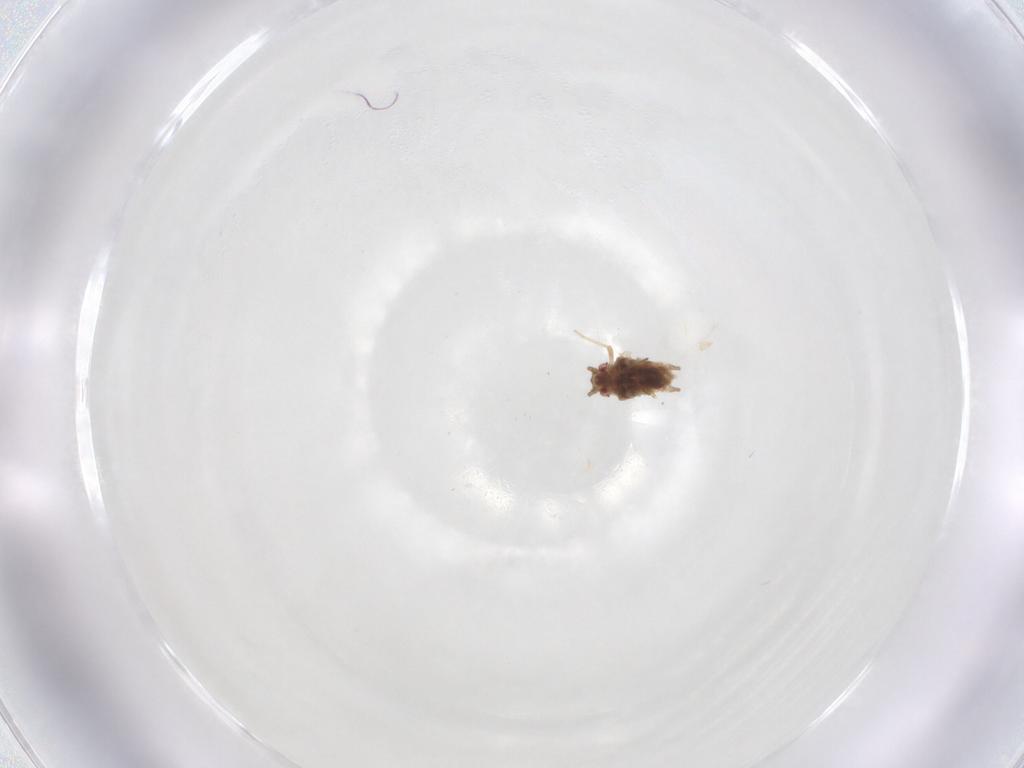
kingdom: Animalia
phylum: Arthropoda
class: Insecta
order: Hemiptera
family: Aphididae
